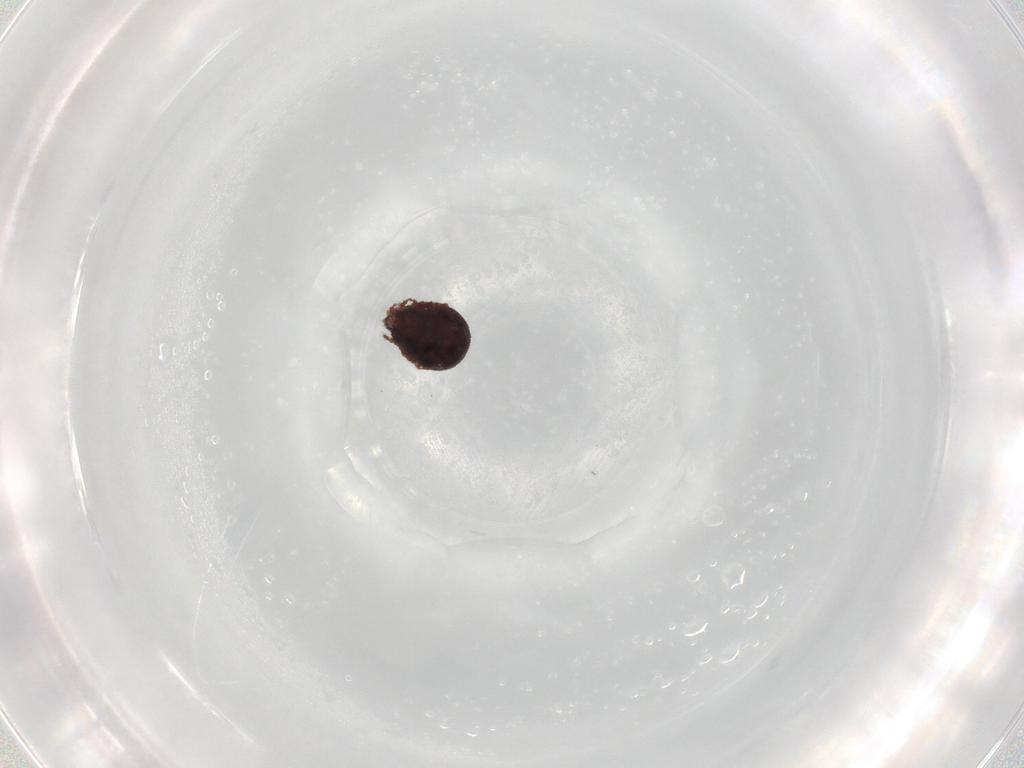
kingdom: Animalia
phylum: Arthropoda
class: Arachnida
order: Sarcoptiformes
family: Cepheusidae
